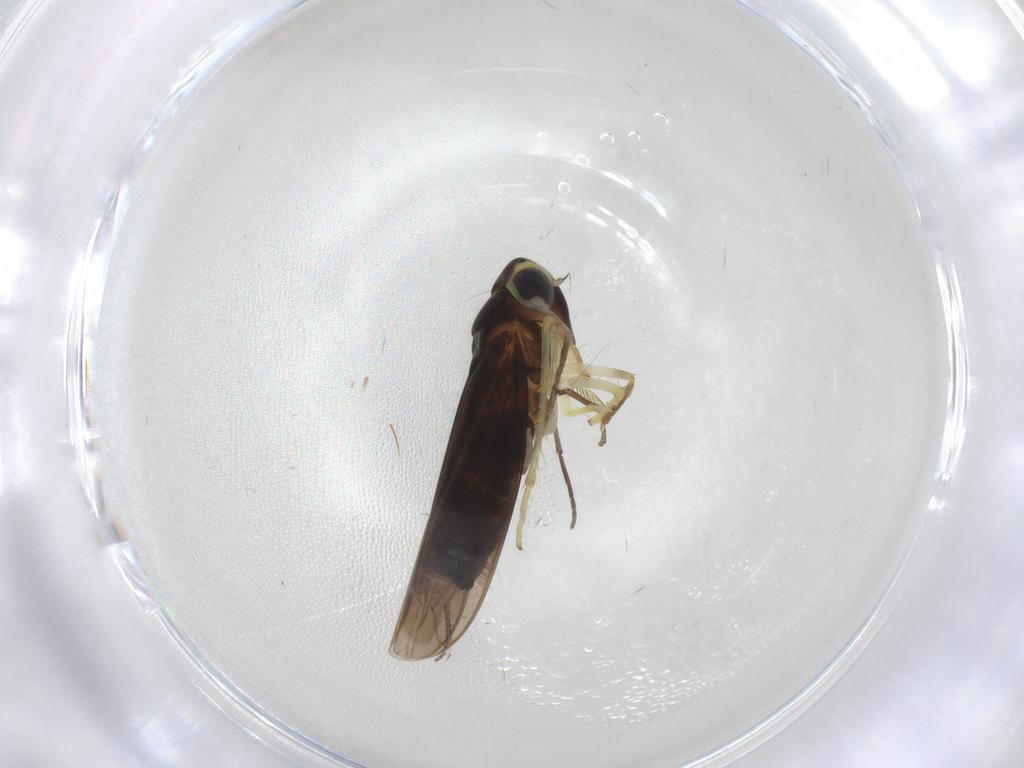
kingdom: Animalia
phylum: Arthropoda
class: Insecta
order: Hemiptera
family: Cicadellidae
